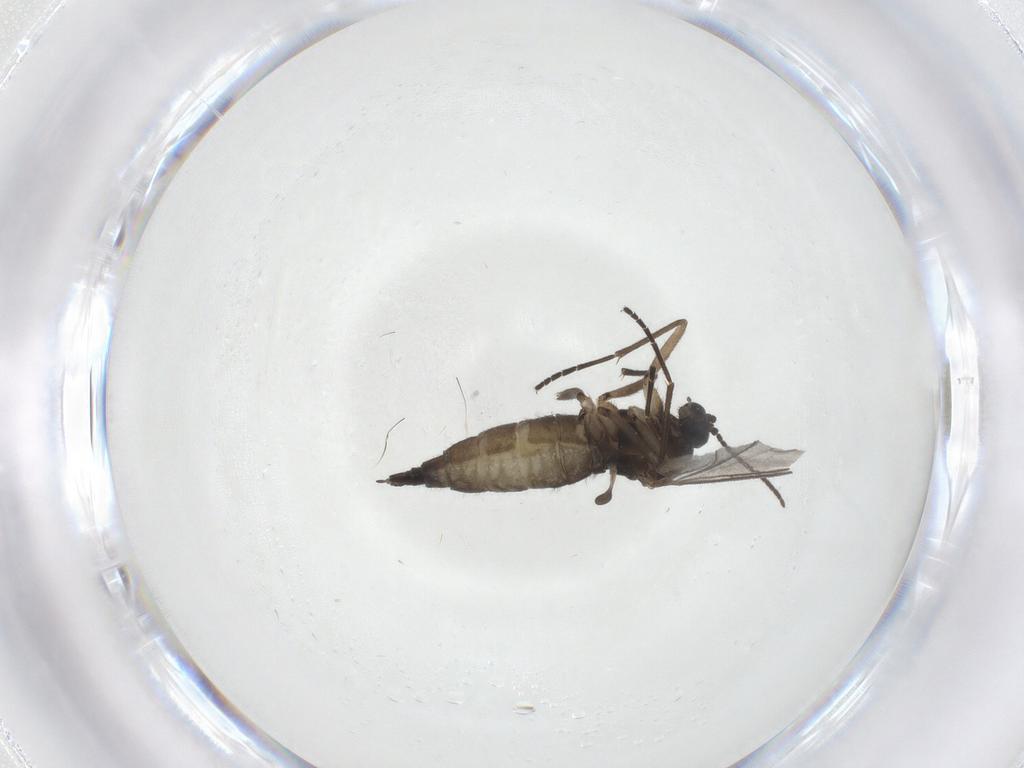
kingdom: Animalia
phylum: Arthropoda
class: Insecta
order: Diptera
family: Sciaridae
